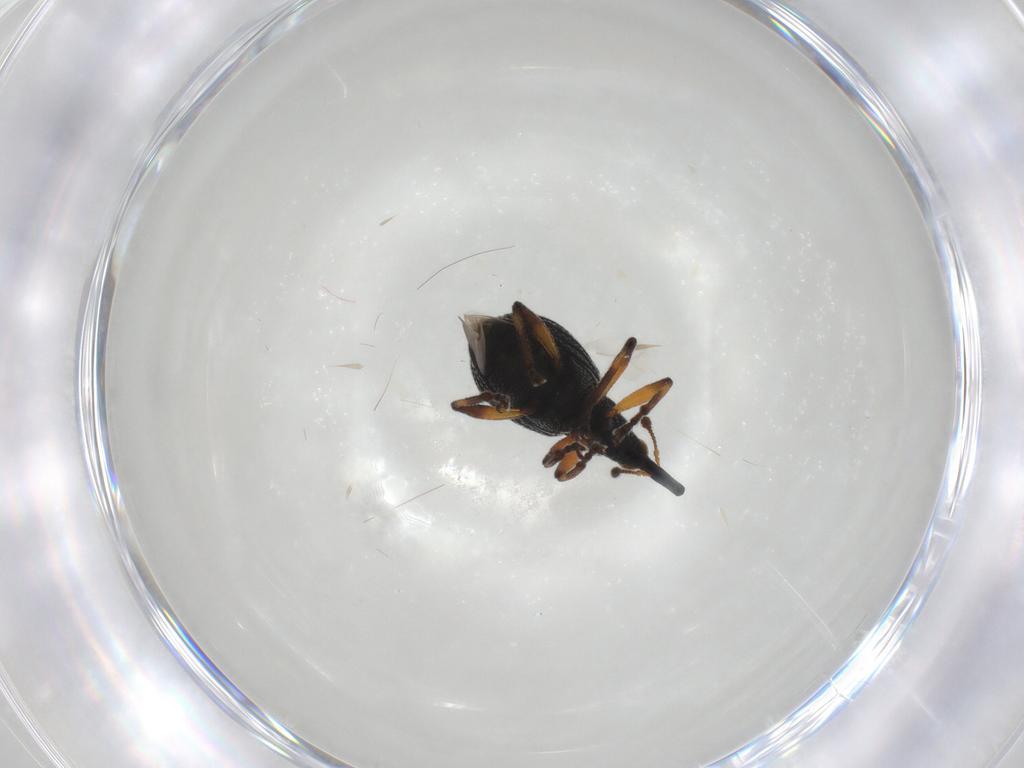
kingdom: Animalia
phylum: Arthropoda
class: Insecta
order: Coleoptera
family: Brentidae
